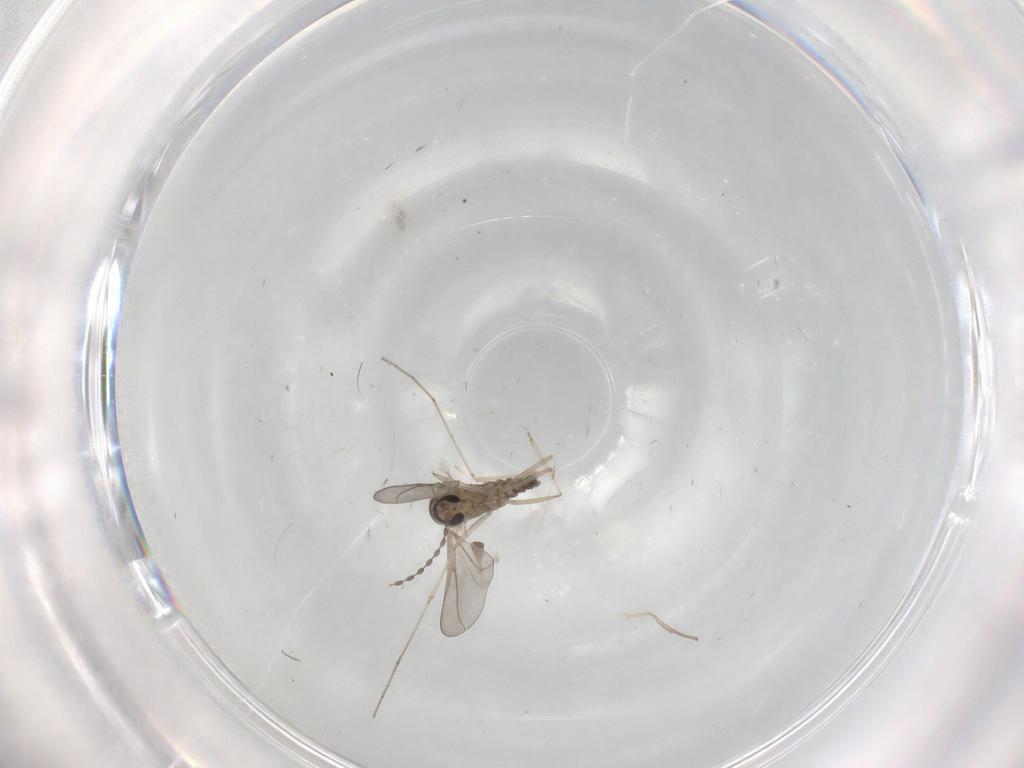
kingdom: Animalia
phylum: Arthropoda
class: Insecta
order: Diptera
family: Cecidomyiidae
